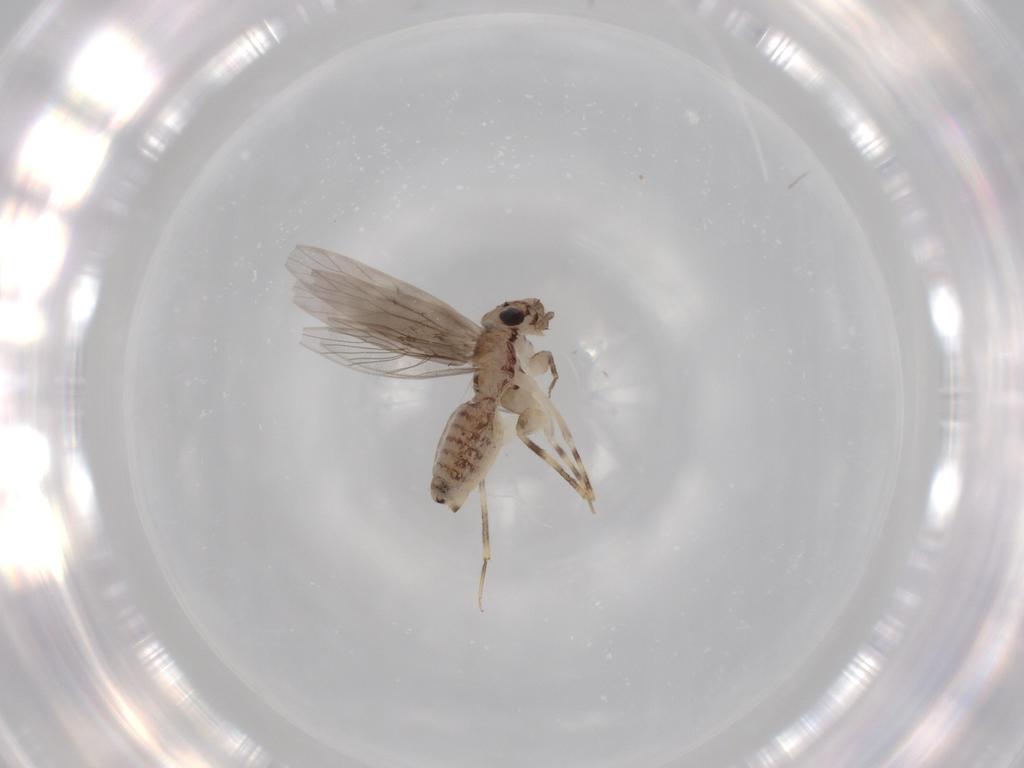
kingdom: Animalia
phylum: Arthropoda
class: Insecta
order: Psocodea
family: Lepidopsocidae
